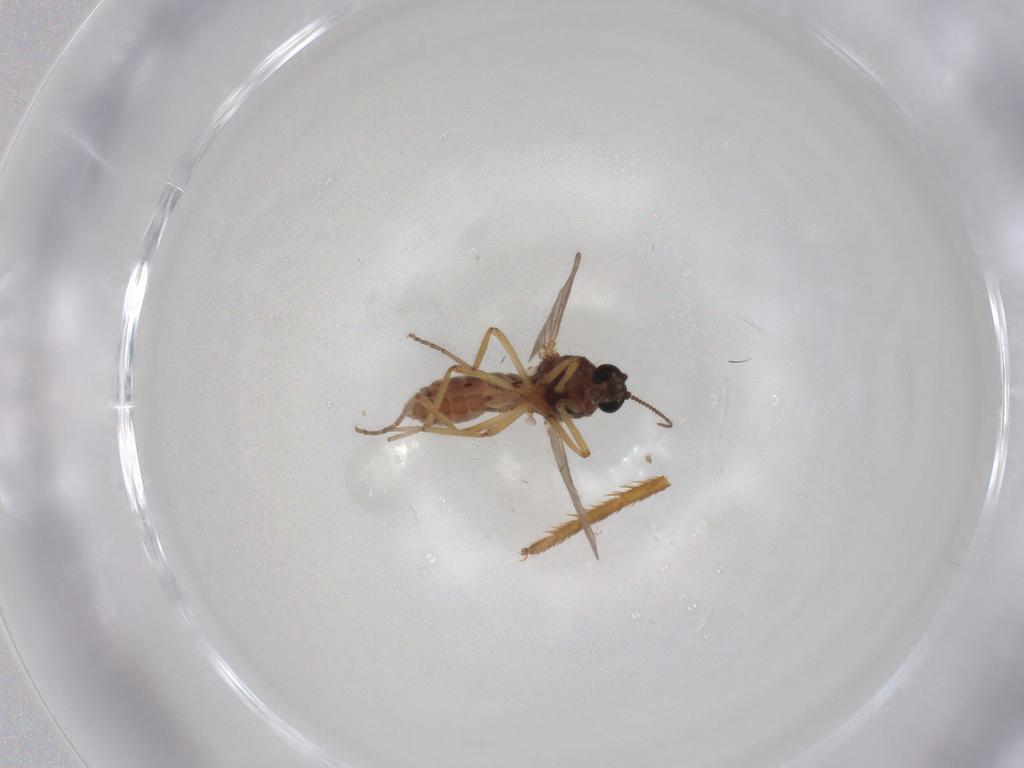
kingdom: Animalia
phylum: Arthropoda
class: Insecta
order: Diptera
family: Ceratopogonidae
